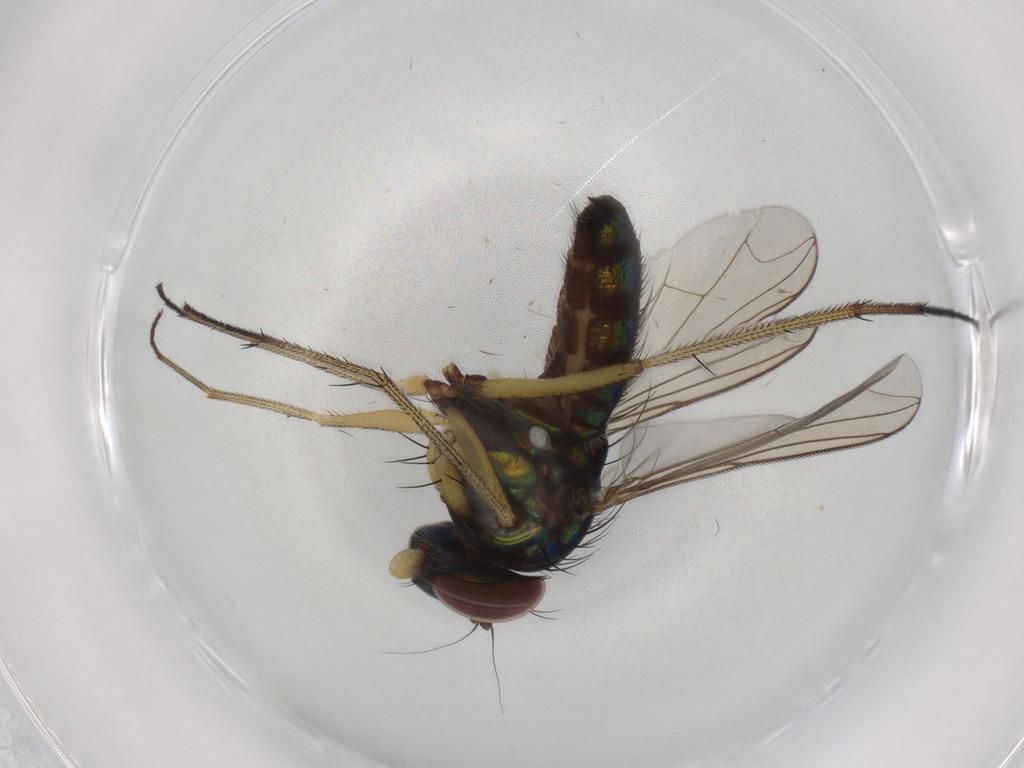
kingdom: Animalia
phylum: Arthropoda
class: Insecta
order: Diptera
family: Dolichopodidae
